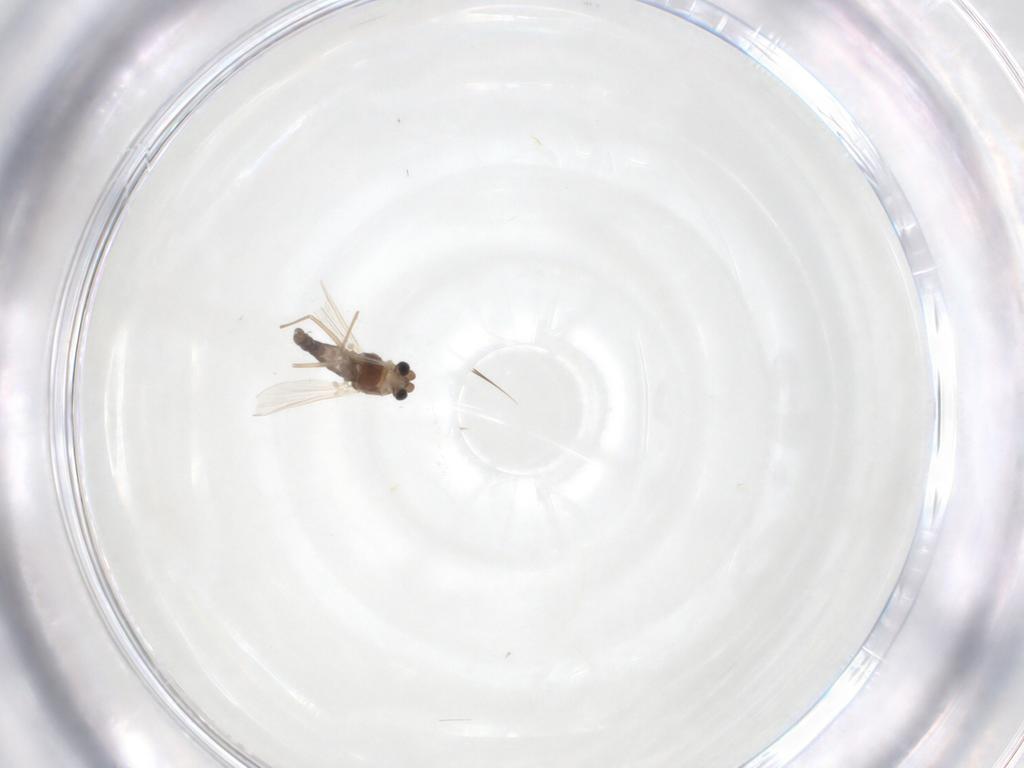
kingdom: Animalia
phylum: Arthropoda
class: Insecta
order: Diptera
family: Chironomidae
